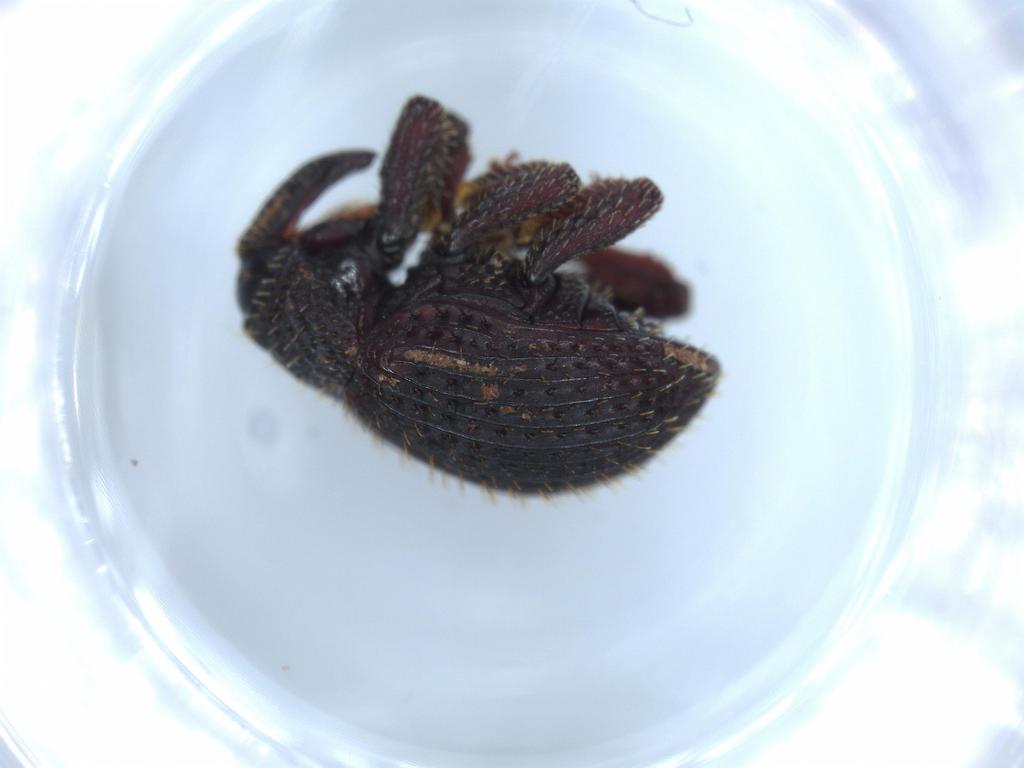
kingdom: Animalia
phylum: Arthropoda
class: Insecta
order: Coleoptera
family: Curculionidae
